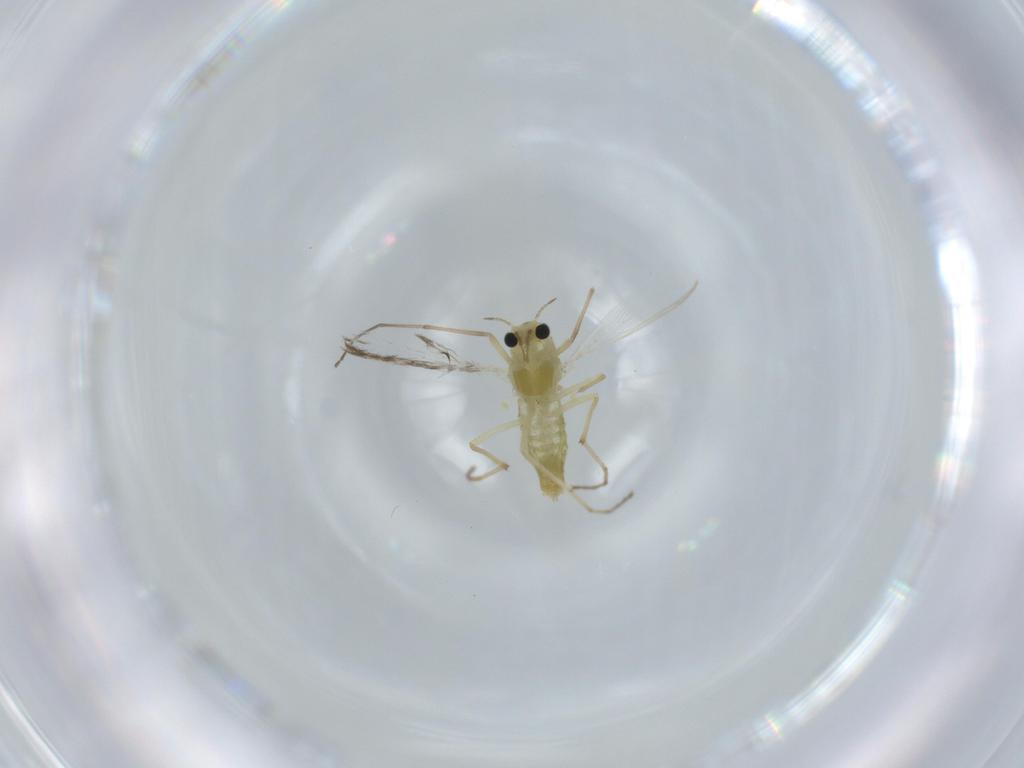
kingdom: Animalia
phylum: Arthropoda
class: Insecta
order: Diptera
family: Chironomidae
